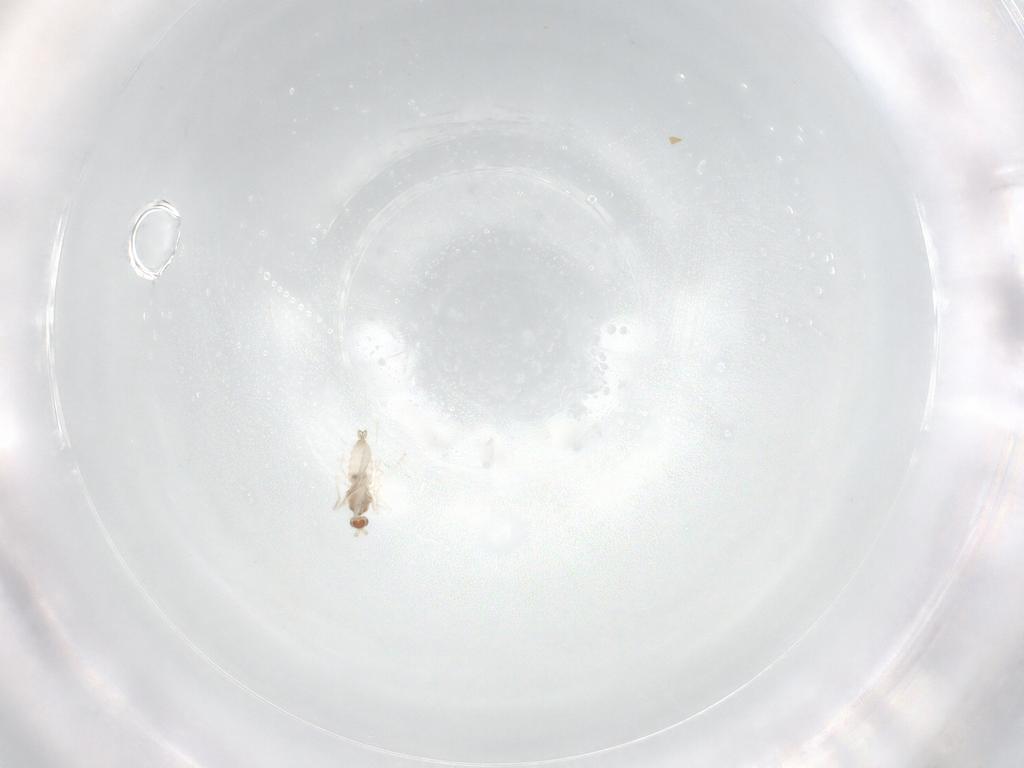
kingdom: Animalia
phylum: Arthropoda
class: Insecta
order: Diptera
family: Cecidomyiidae
